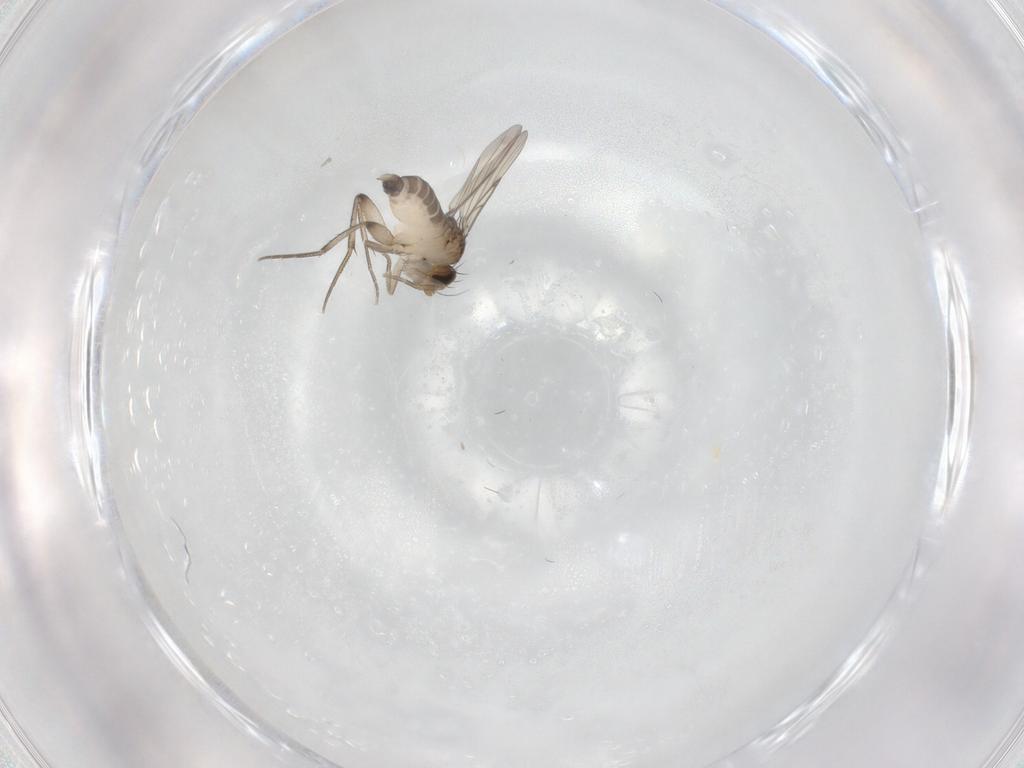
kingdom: Animalia
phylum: Arthropoda
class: Insecta
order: Diptera
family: Phoridae
